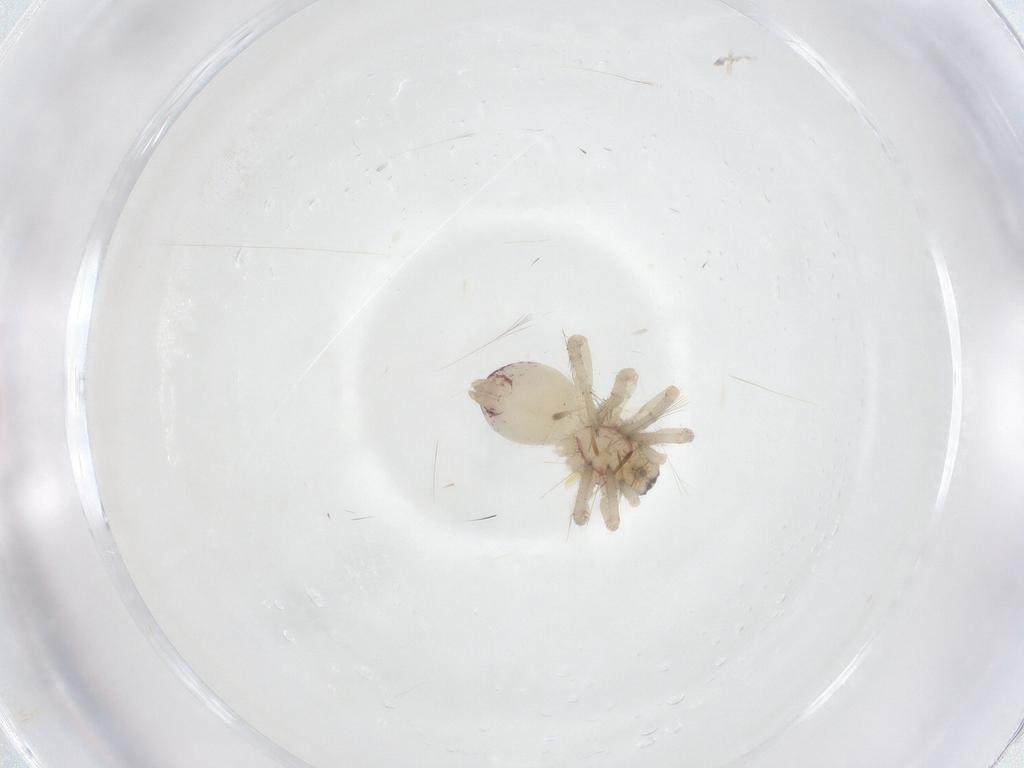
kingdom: Animalia
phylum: Arthropoda
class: Arachnida
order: Araneae
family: Clubionidae
